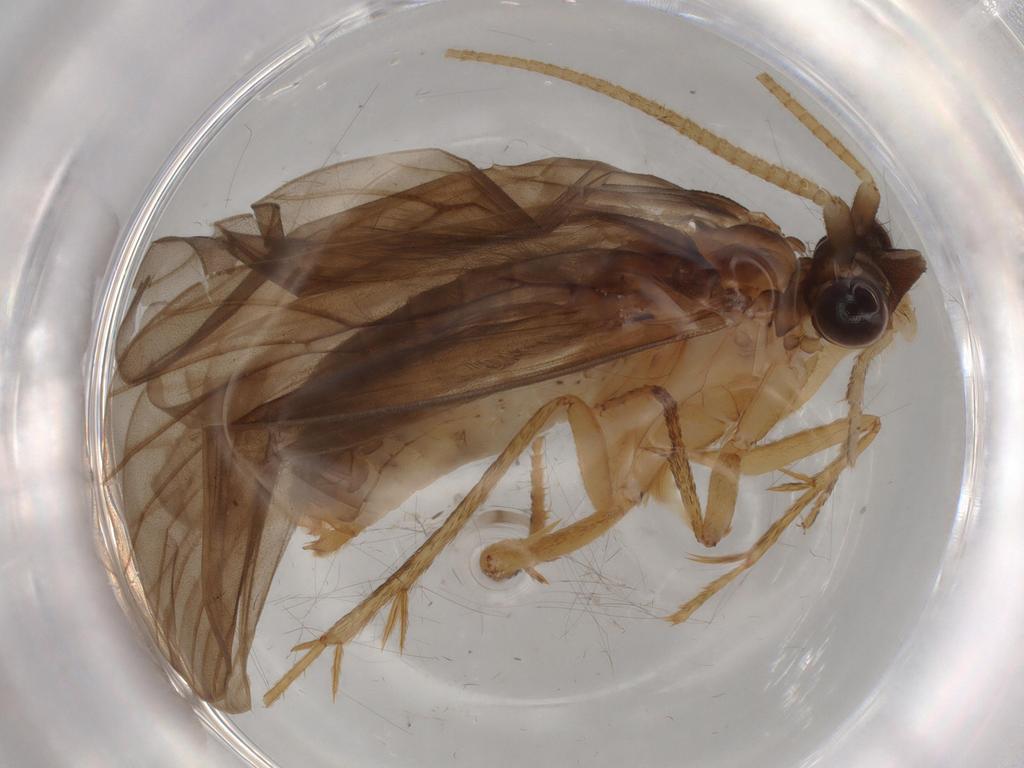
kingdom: Animalia
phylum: Arthropoda
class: Insecta
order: Trichoptera
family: Lepidostomatidae
